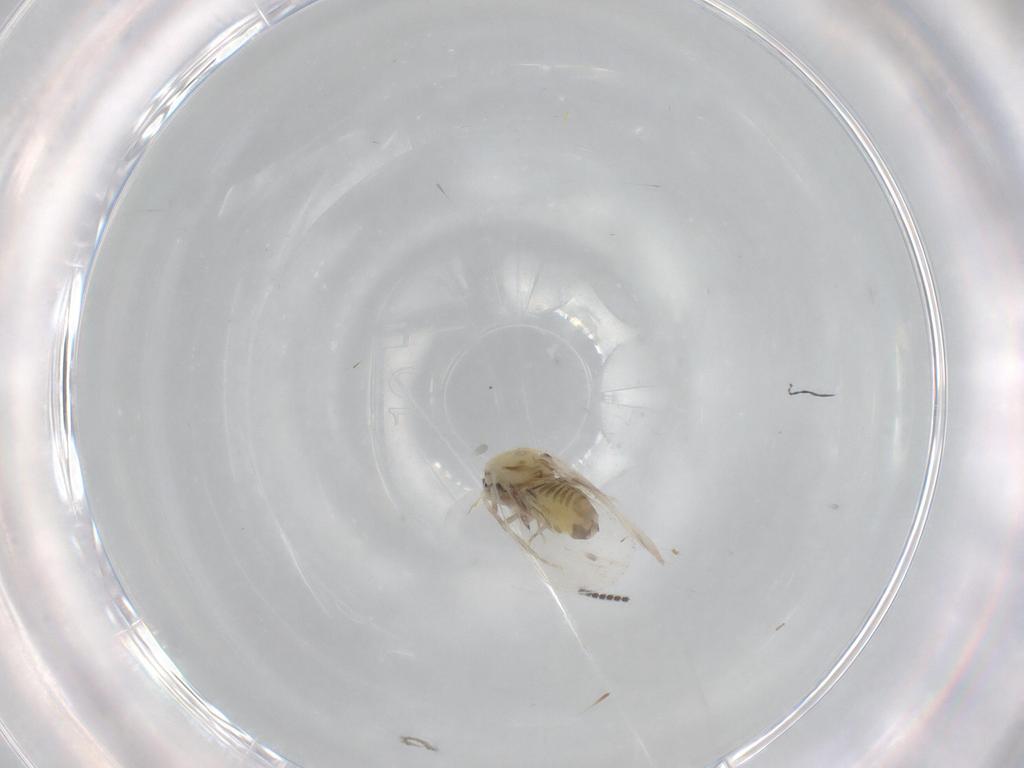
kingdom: Animalia
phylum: Arthropoda
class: Insecta
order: Hemiptera
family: Aleyrodidae
